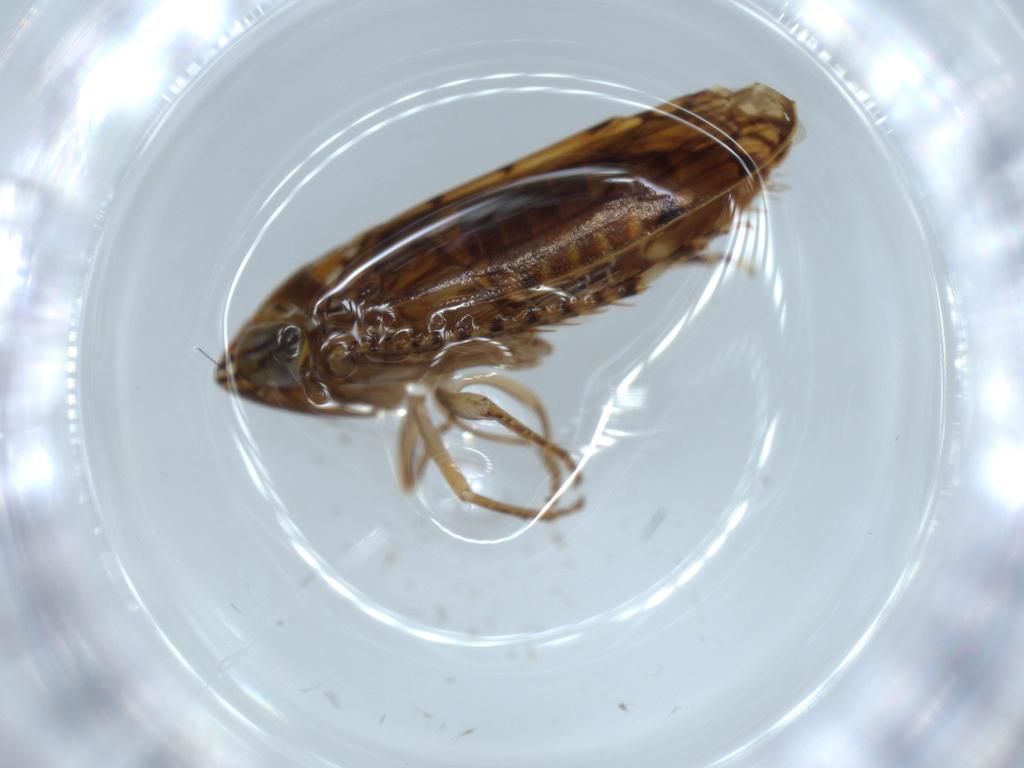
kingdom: Animalia
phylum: Arthropoda
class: Insecta
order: Hemiptera
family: Cicadellidae
